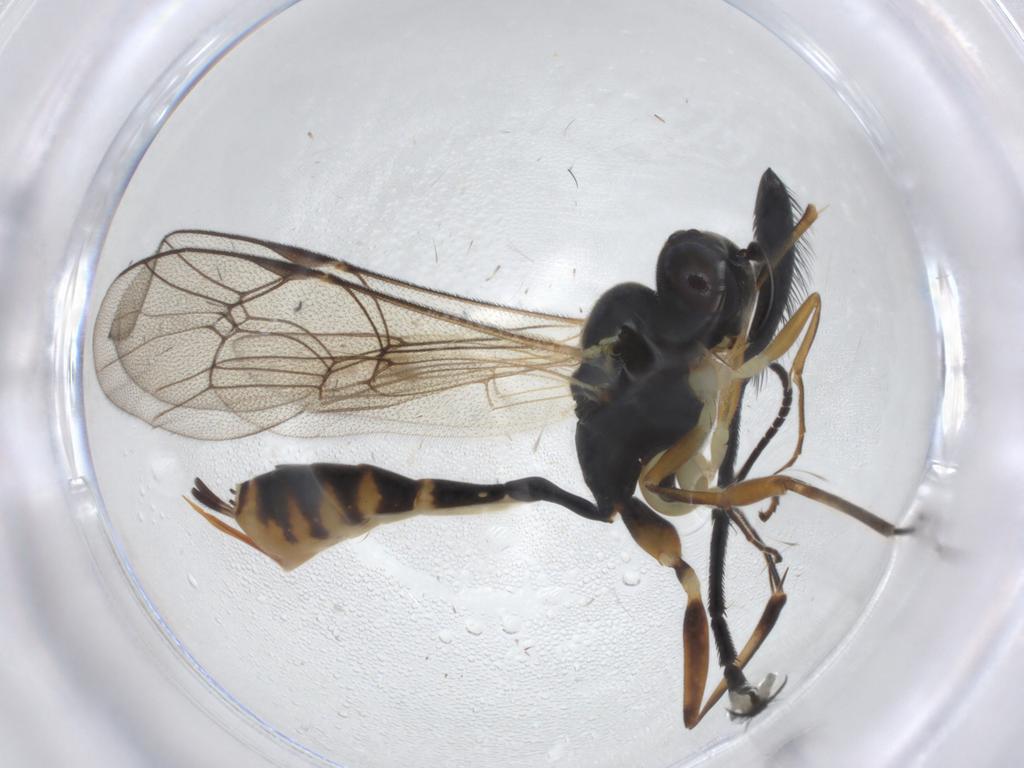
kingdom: Animalia
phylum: Arthropoda
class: Insecta
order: Hymenoptera
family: Ichneumonidae
